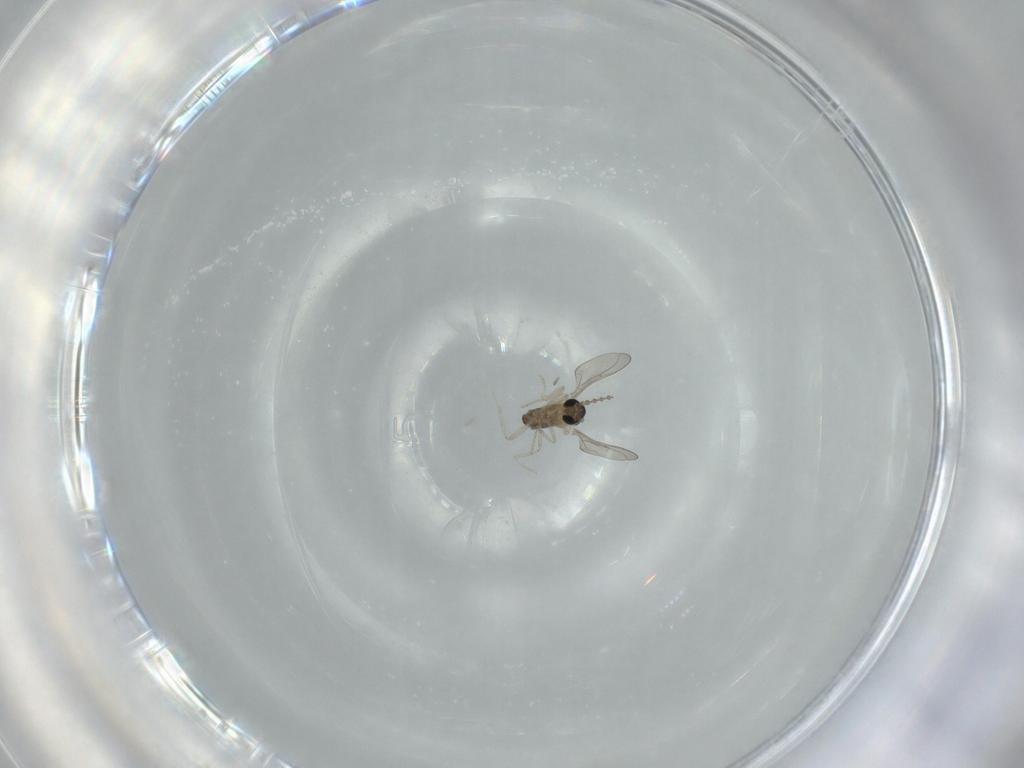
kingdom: Animalia
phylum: Arthropoda
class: Insecta
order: Diptera
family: Cecidomyiidae
